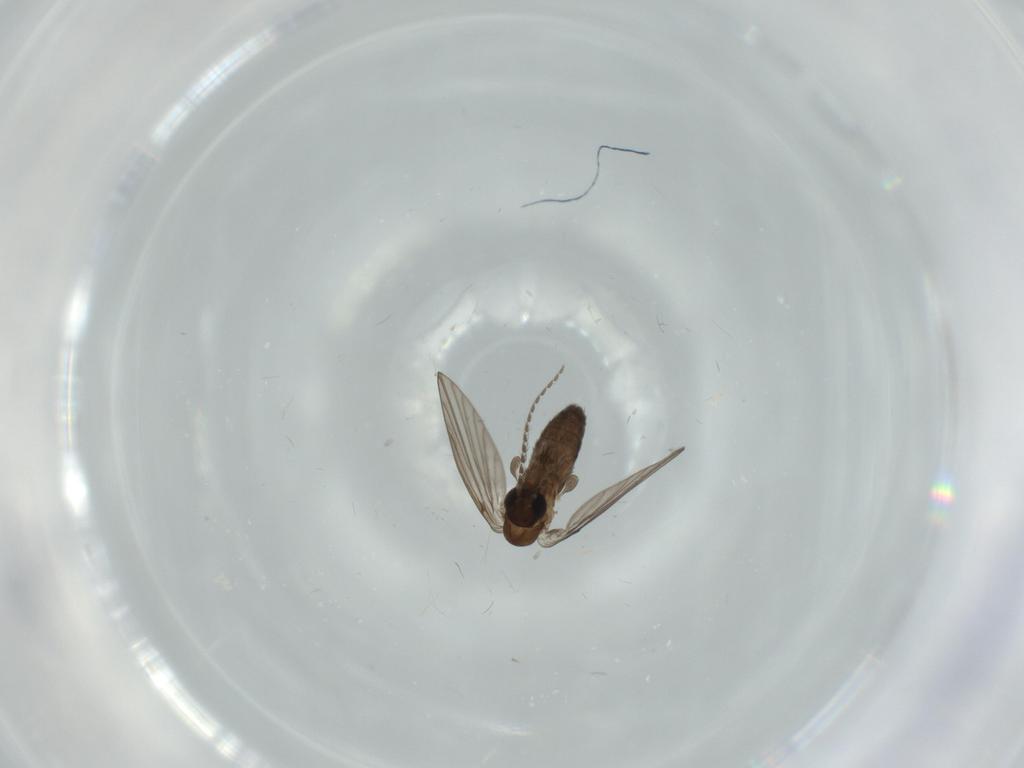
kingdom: Animalia
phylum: Arthropoda
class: Insecta
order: Diptera
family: Psychodidae
